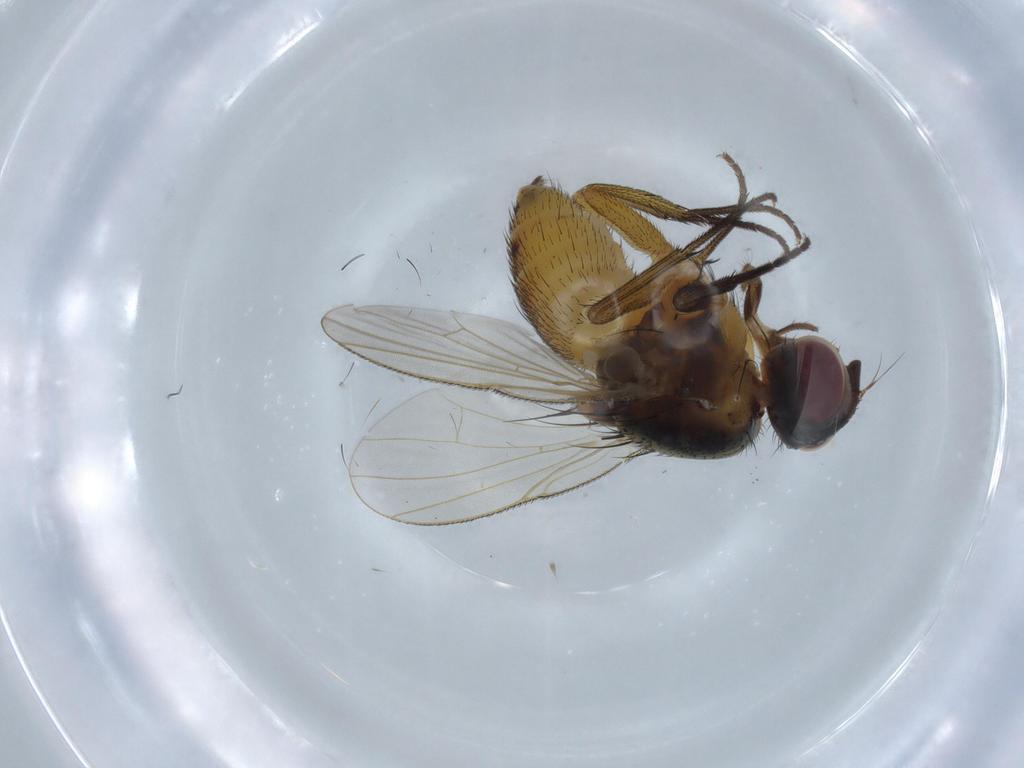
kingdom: Animalia
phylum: Arthropoda
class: Insecta
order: Diptera
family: Muscidae
